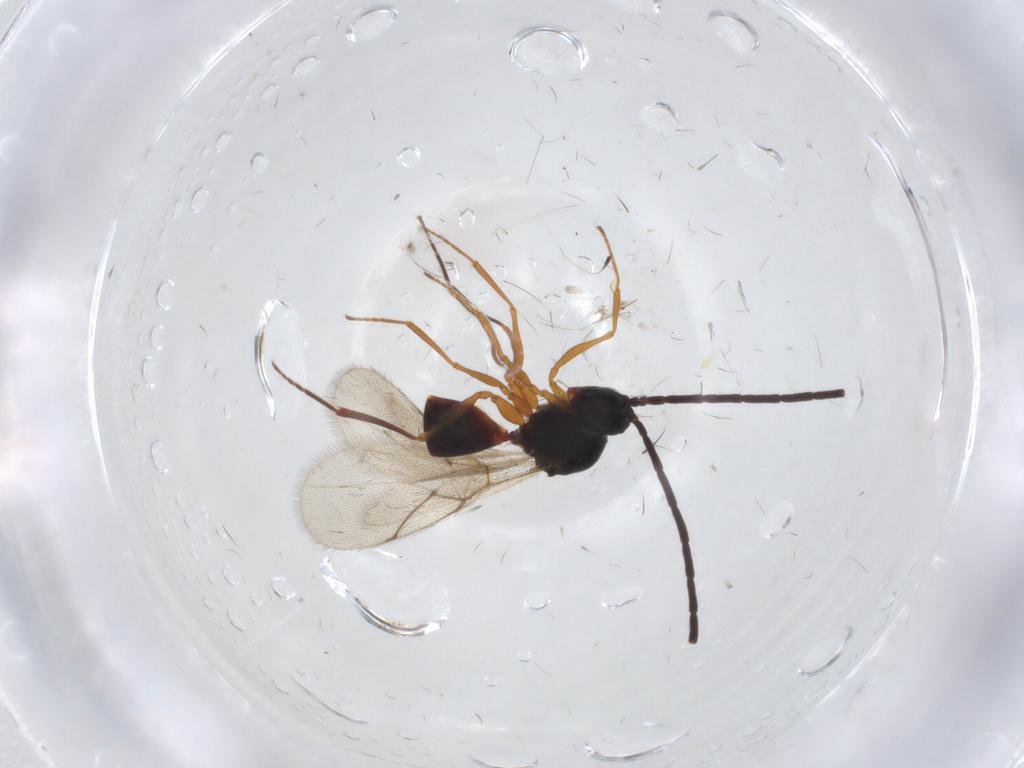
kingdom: Animalia
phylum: Arthropoda
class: Insecta
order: Hymenoptera
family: Figitidae
